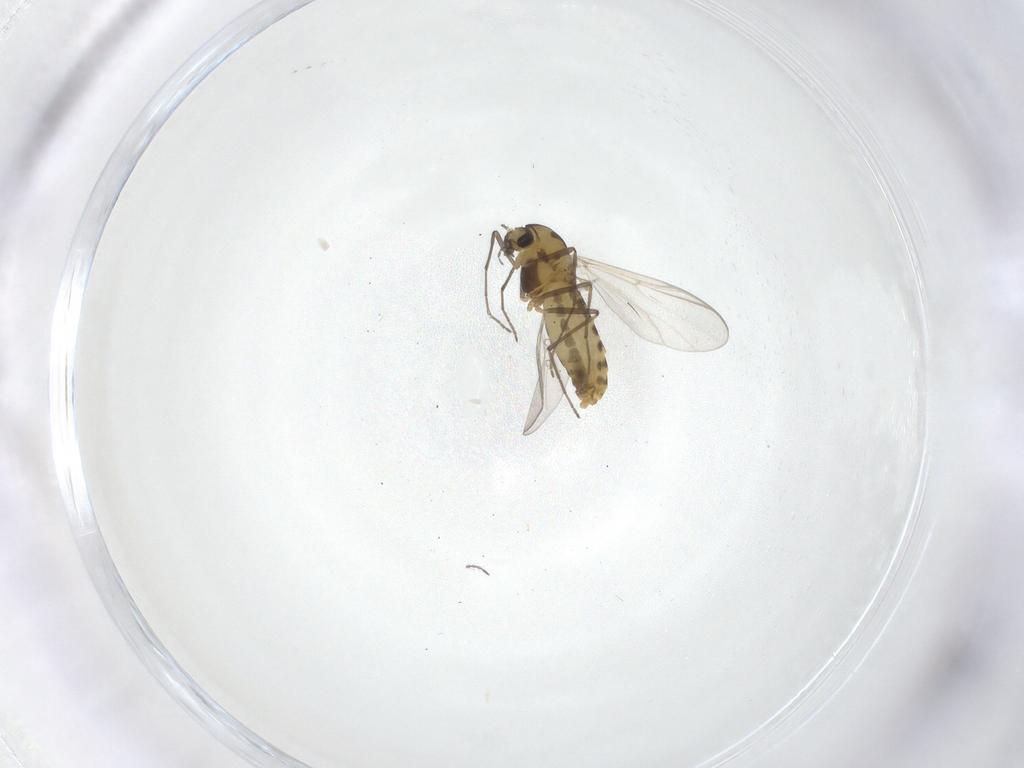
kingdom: Animalia
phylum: Arthropoda
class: Insecta
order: Diptera
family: Chironomidae
